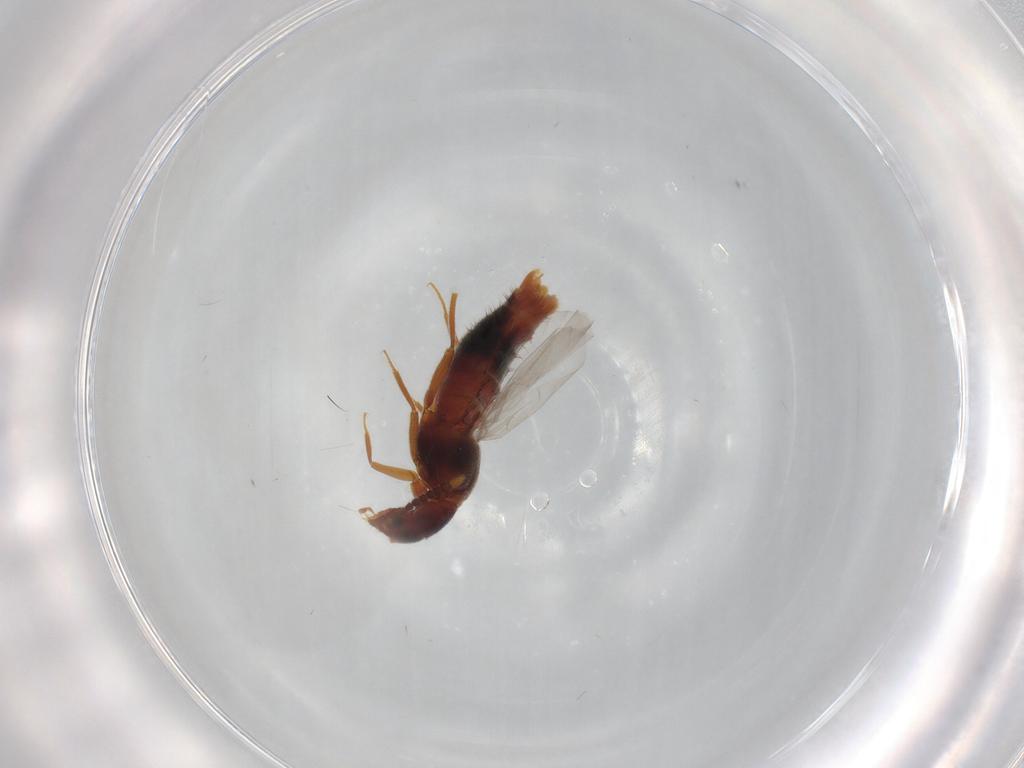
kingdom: Animalia
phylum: Arthropoda
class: Insecta
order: Coleoptera
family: Staphylinidae
